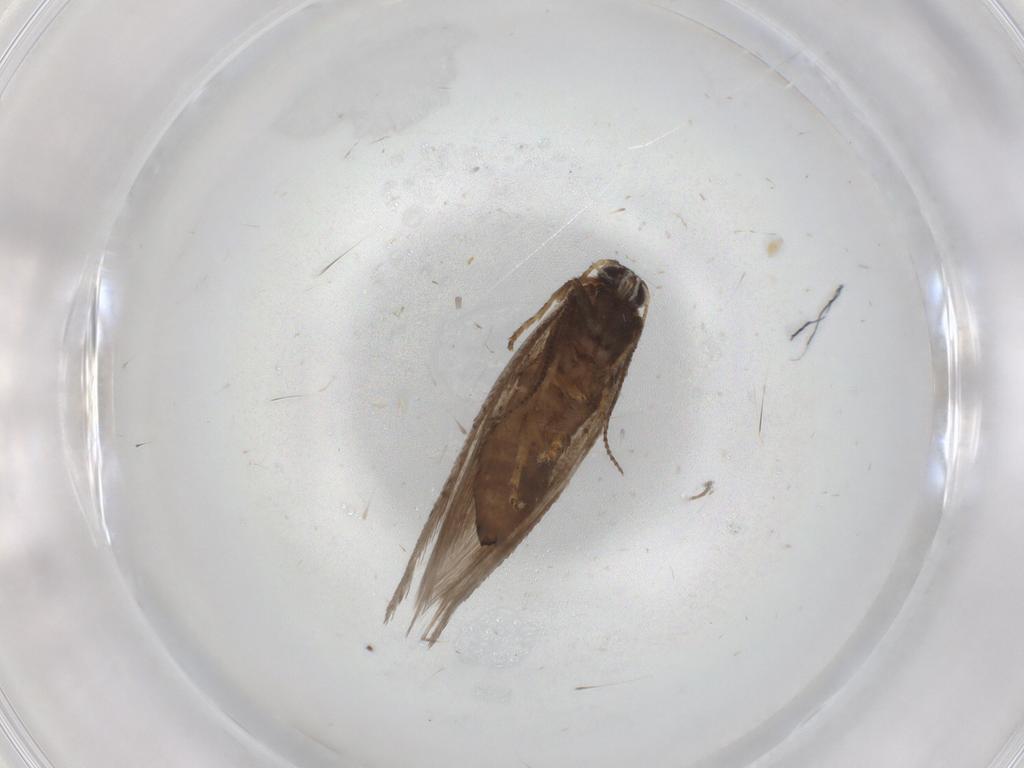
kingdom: Animalia
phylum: Arthropoda
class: Insecta
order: Lepidoptera
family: Nepticulidae
